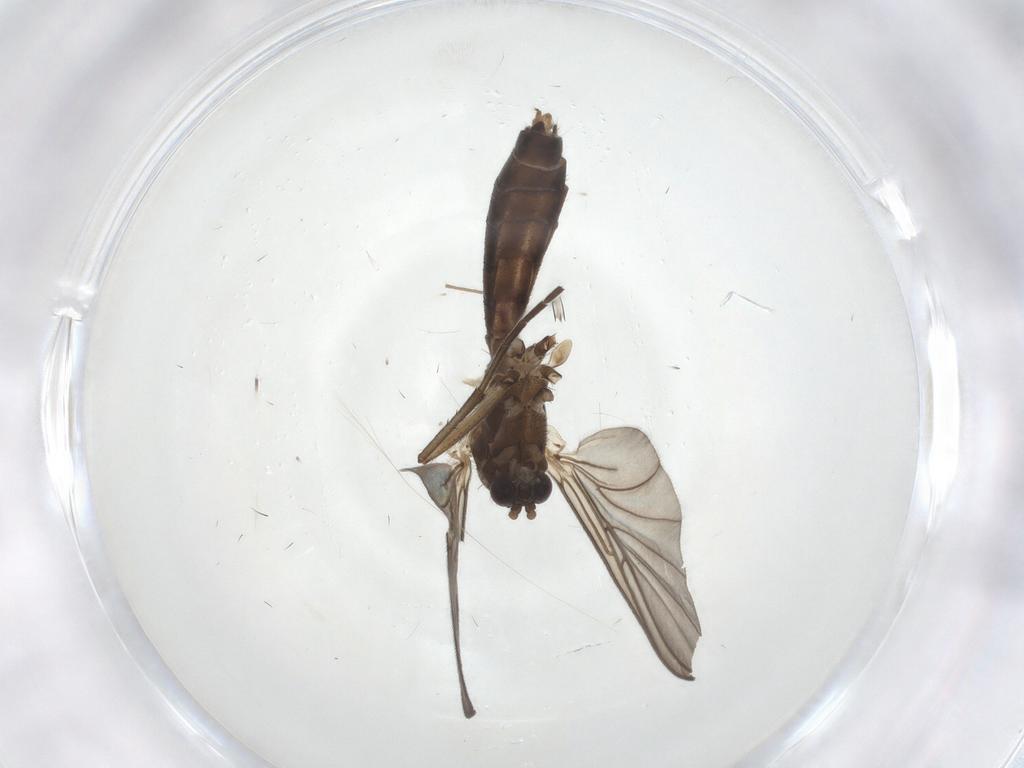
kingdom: Animalia
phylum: Arthropoda
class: Insecta
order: Diptera
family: Mycetophilidae
